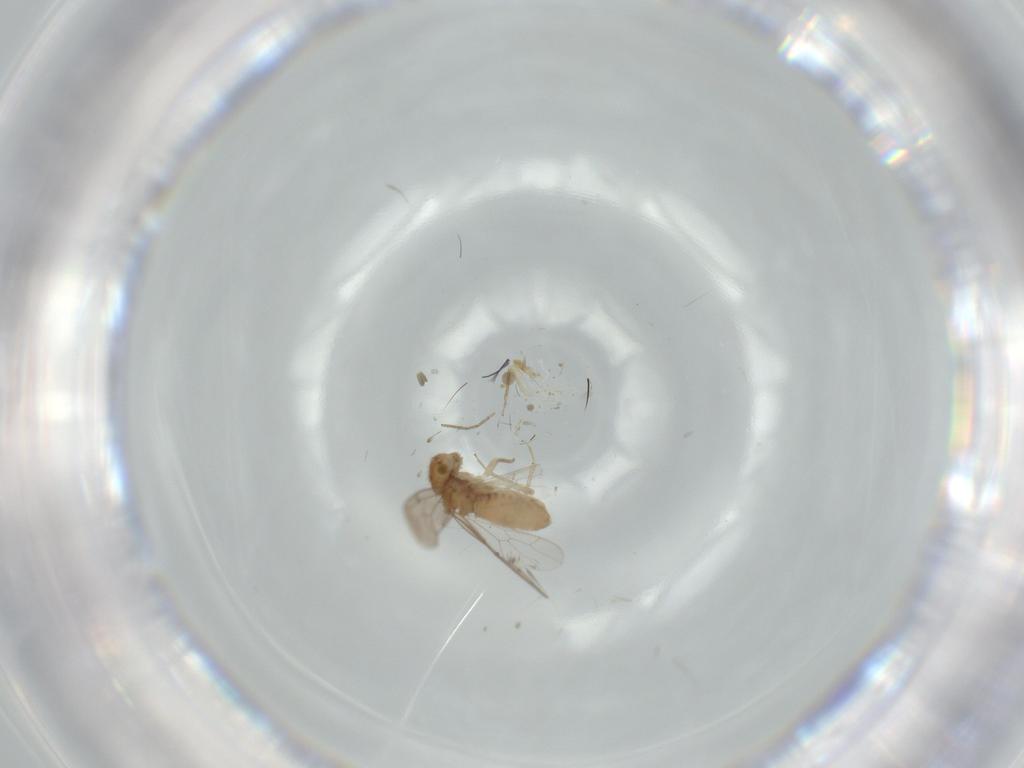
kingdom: Animalia
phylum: Arthropoda
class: Insecta
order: Psocodea
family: Ectopsocidae
